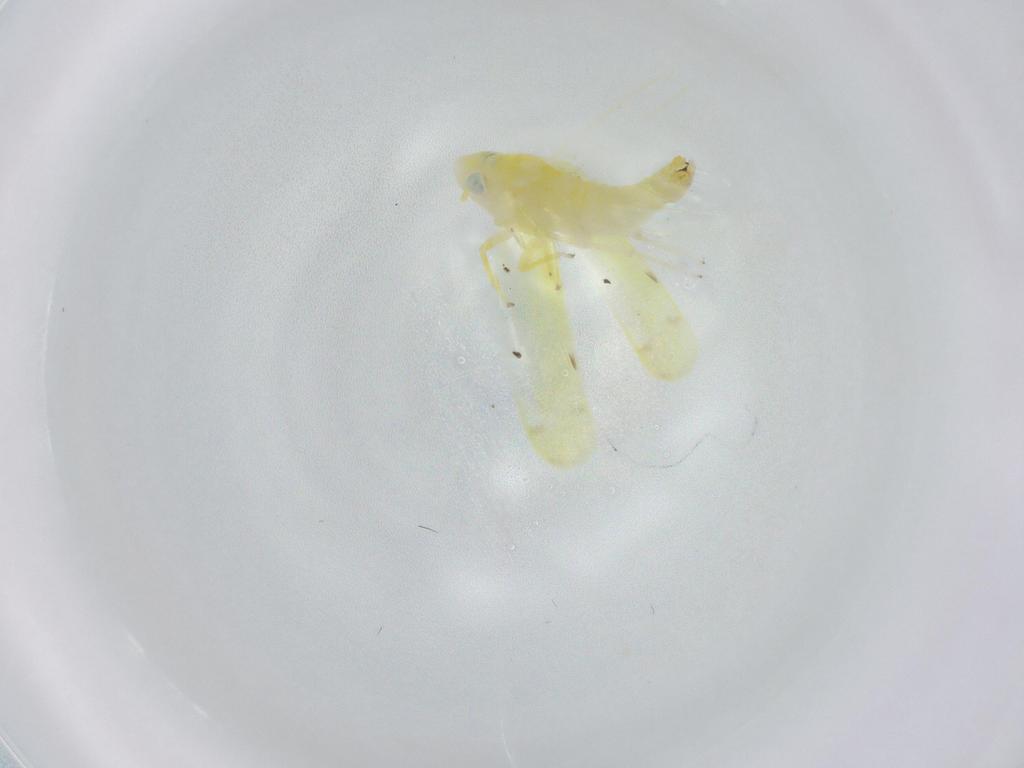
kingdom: Animalia
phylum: Arthropoda
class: Insecta
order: Hemiptera
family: Cicadellidae
